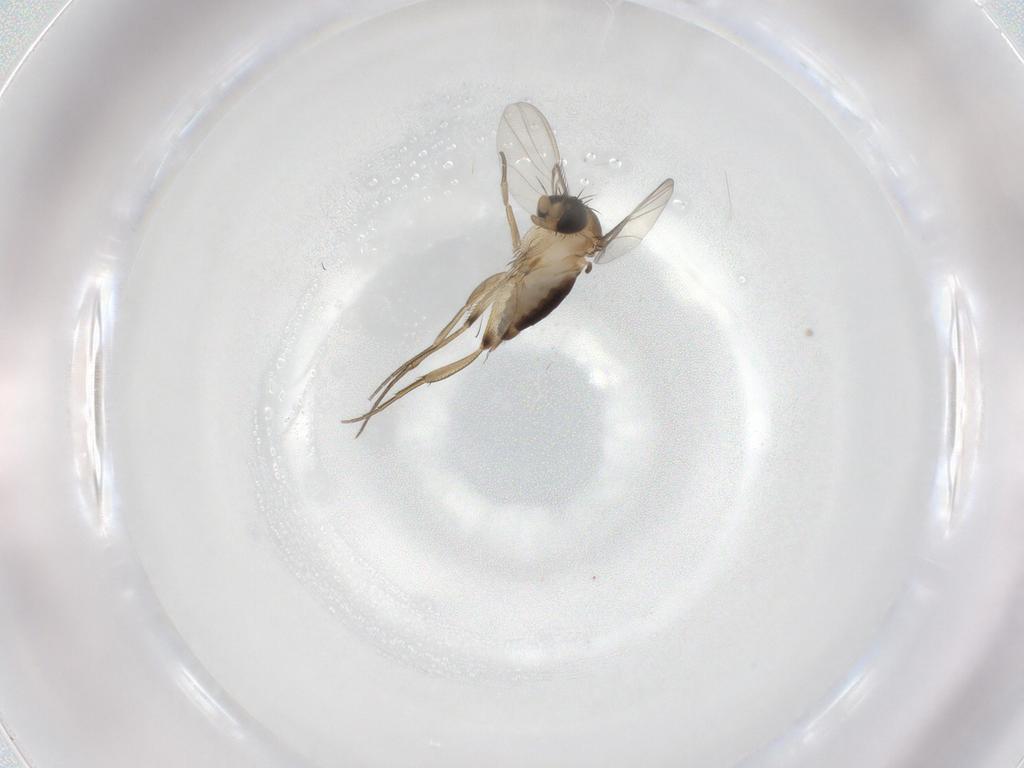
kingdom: Animalia
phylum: Arthropoda
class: Insecta
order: Diptera
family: Phoridae
